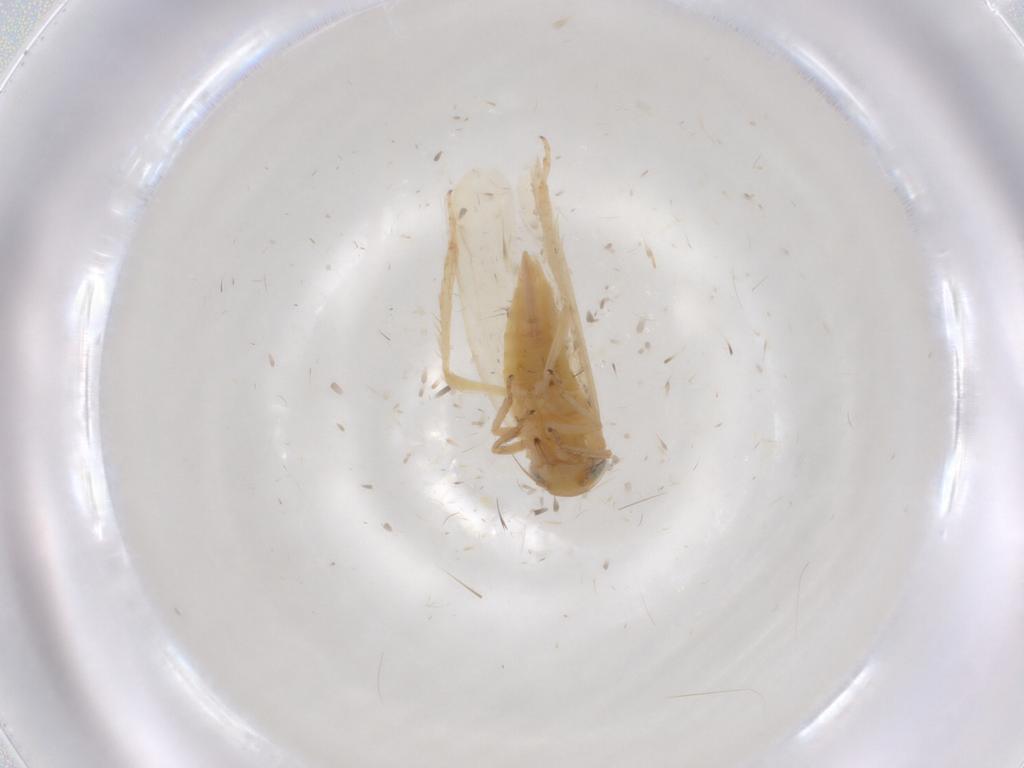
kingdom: Animalia
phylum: Arthropoda
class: Insecta
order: Hemiptera
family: Cicadellidae
